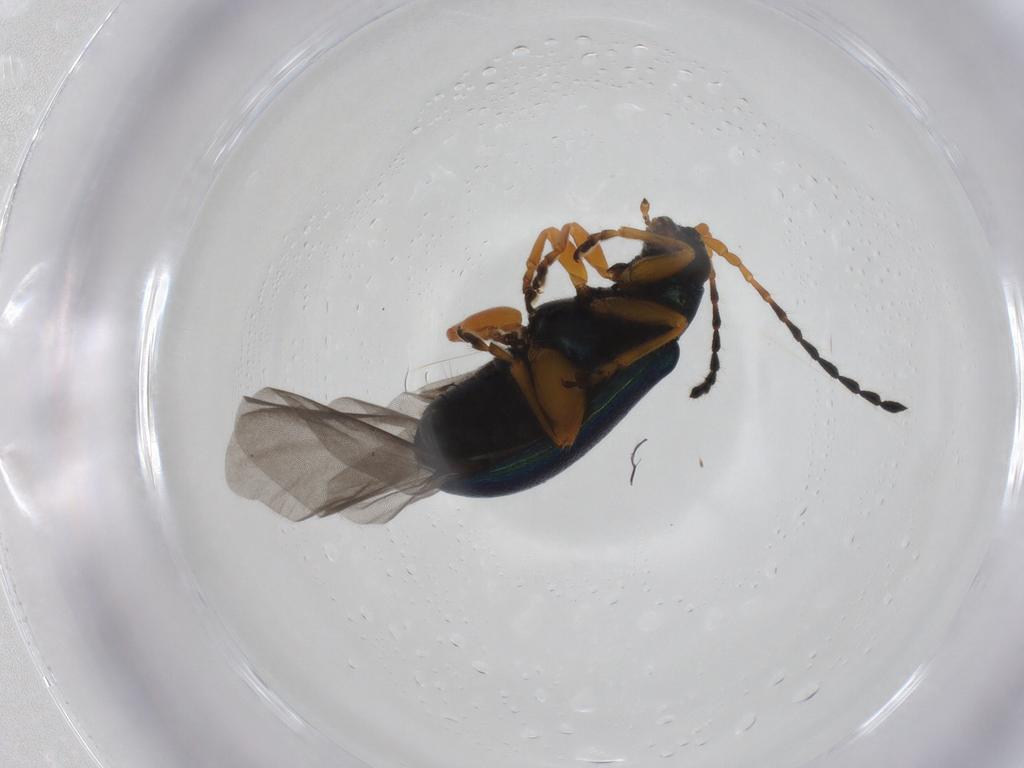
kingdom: Animalia
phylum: Arthropoda
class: Insecta
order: Coleoptera
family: Chrysomelidae
